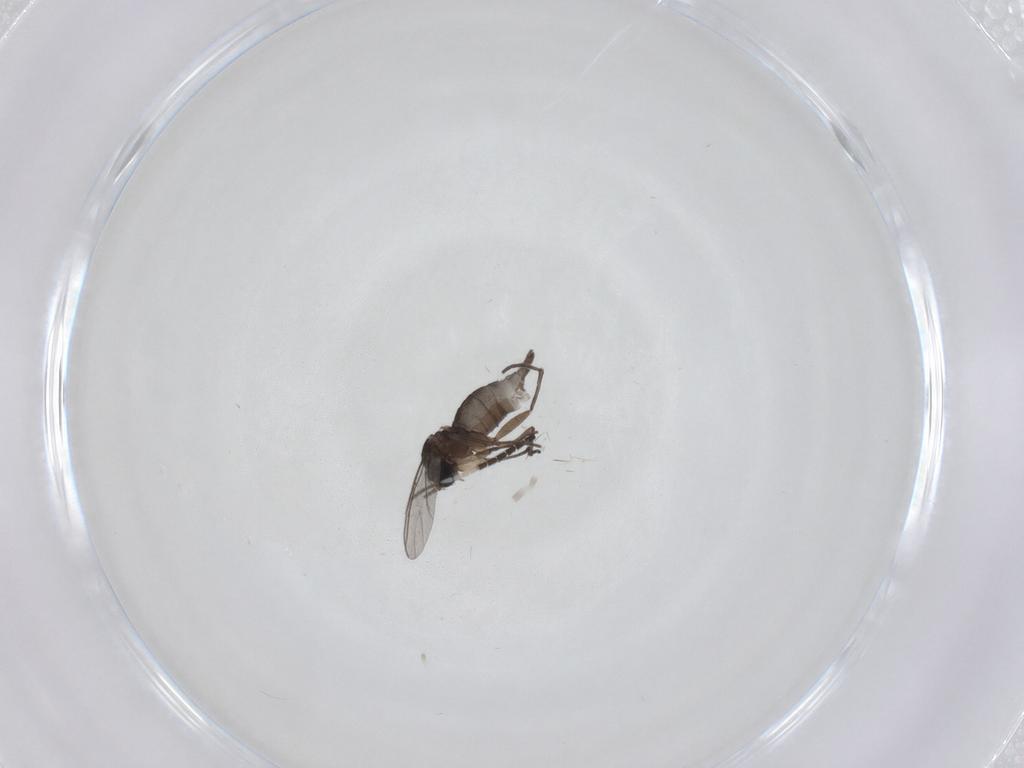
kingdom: Animalia
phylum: Arthropoda
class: Insecta
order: Diptera
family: Sciaridae
